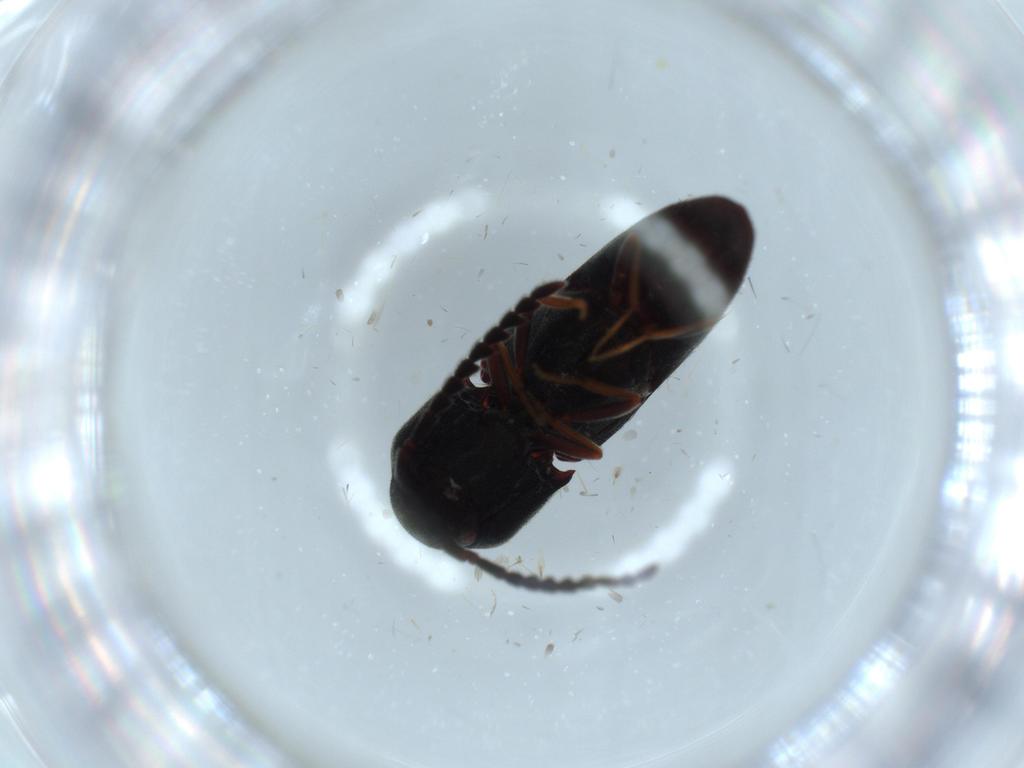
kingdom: Animalia
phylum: Arthropoda
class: Insecta
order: Coleoptera
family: Eucnemidae
